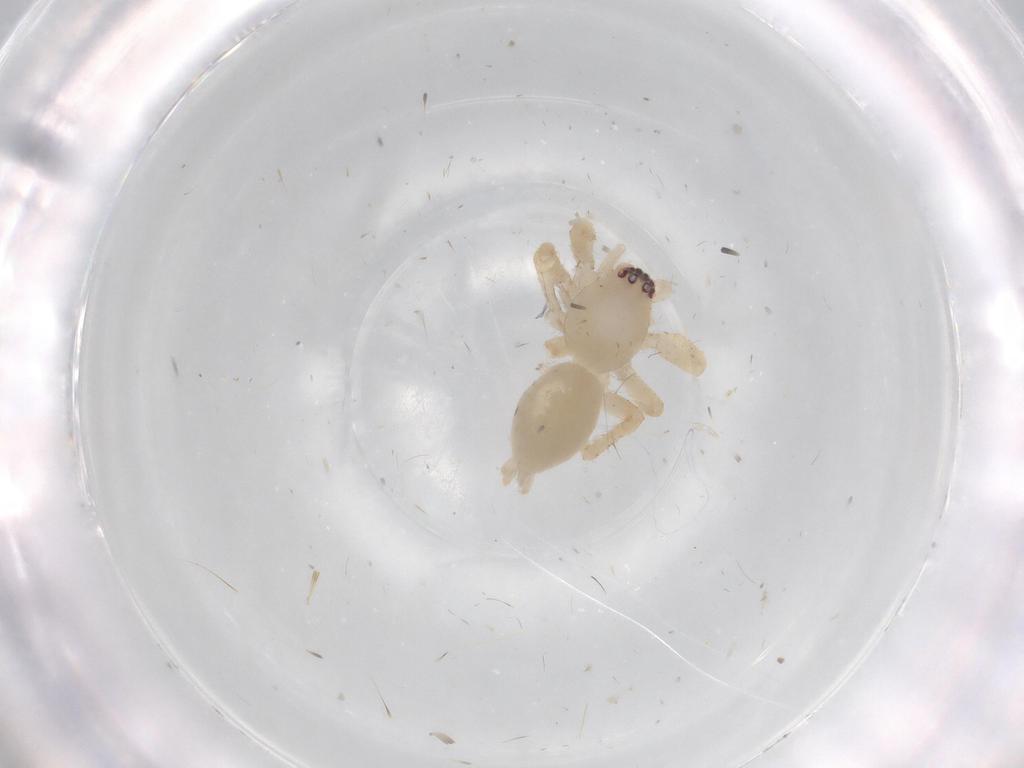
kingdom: Animalia
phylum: Arthropoda
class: Arachnida
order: Araneae
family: Clubionidae
